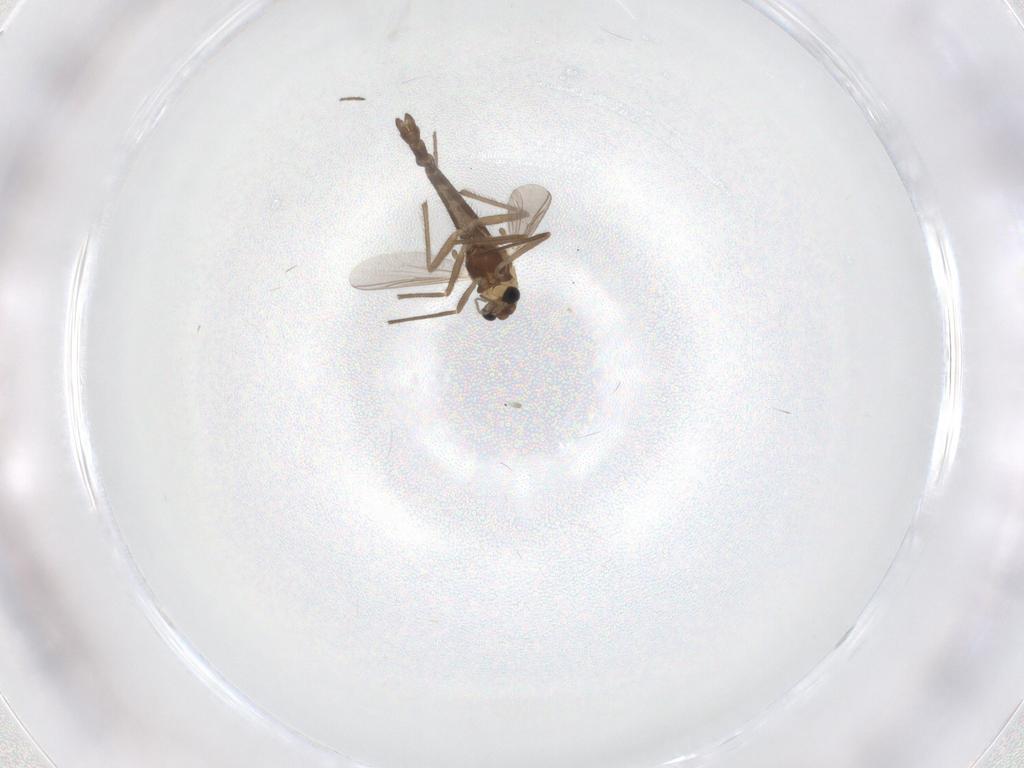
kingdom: Animalia
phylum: Arthropoda
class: Insecta
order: Diptera
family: Chironomidae
